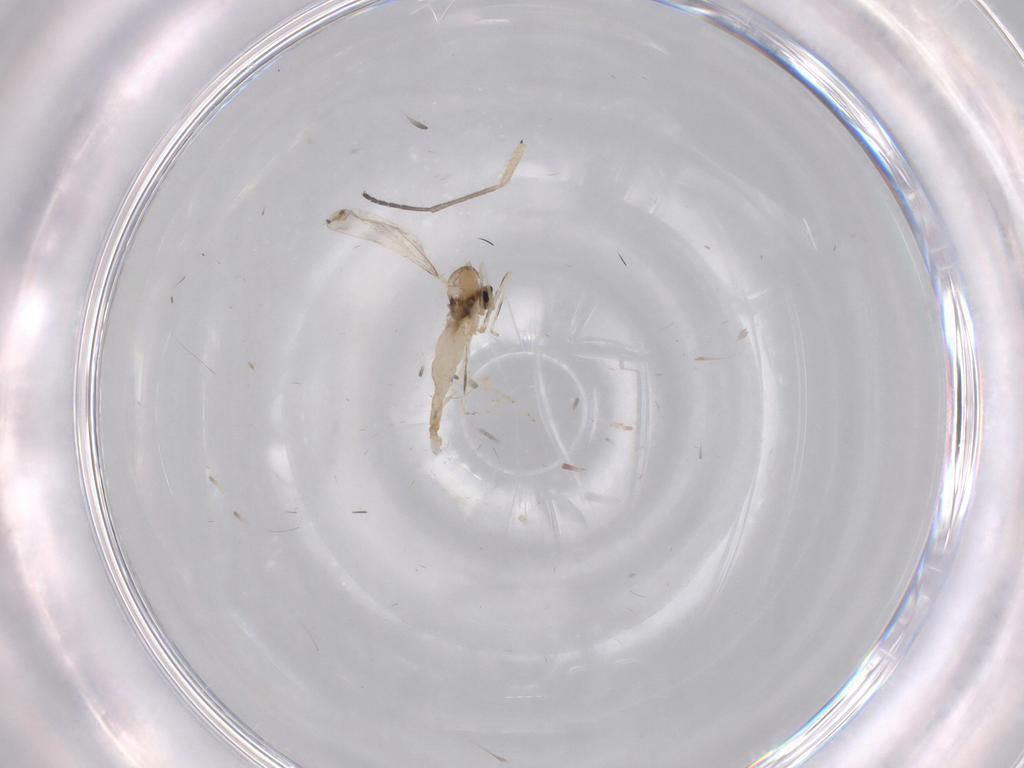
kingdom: Animalia
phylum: Arthropoda
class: Insecta
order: Diptera
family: Cecidomyiidae
